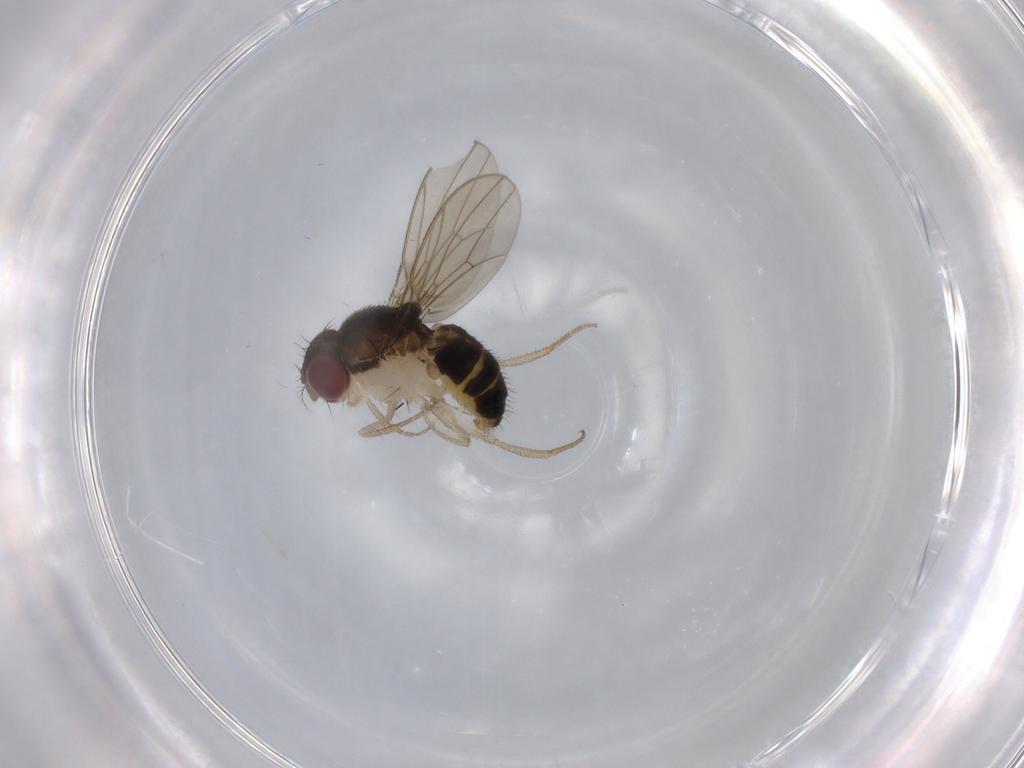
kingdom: Animalia
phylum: Arthropoda
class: Insecta
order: Diptera
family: Drosophilidae
